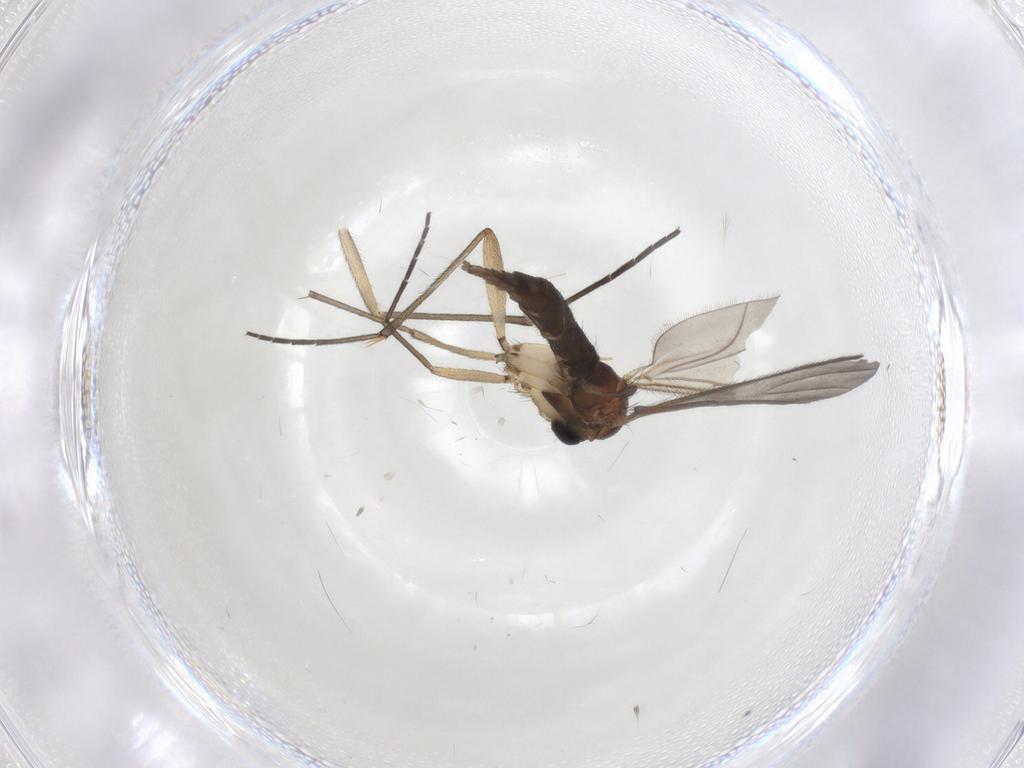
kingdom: Animalia
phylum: Arthropoda
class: Insecta
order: Diptera
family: Sciaridae
